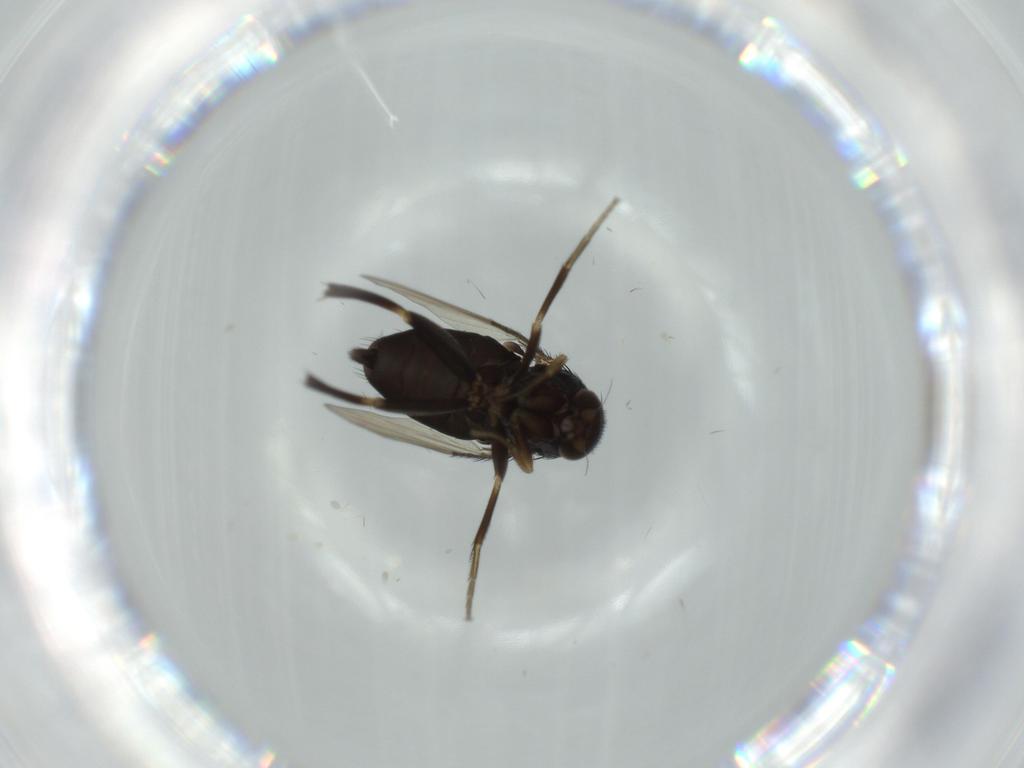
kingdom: Animalia
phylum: Arthropoda
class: Insecta
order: Diptera
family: Phoridae
